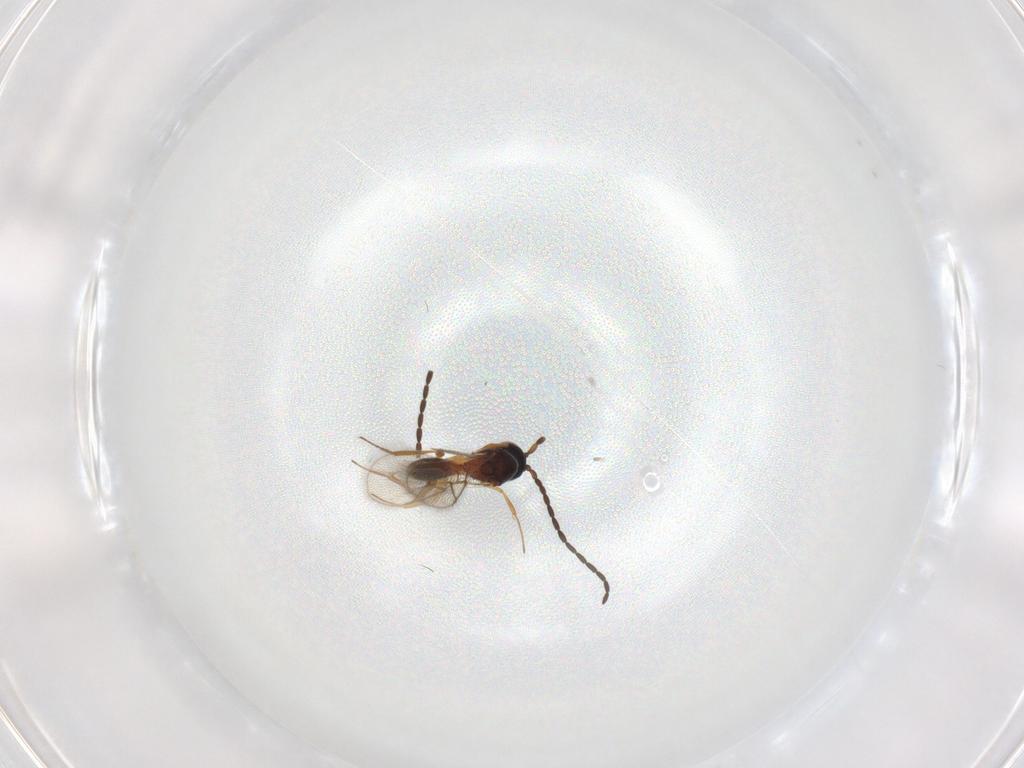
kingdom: Animalia
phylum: Arthropoda
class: Insecta
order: Hymenoptera
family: Figitidae
